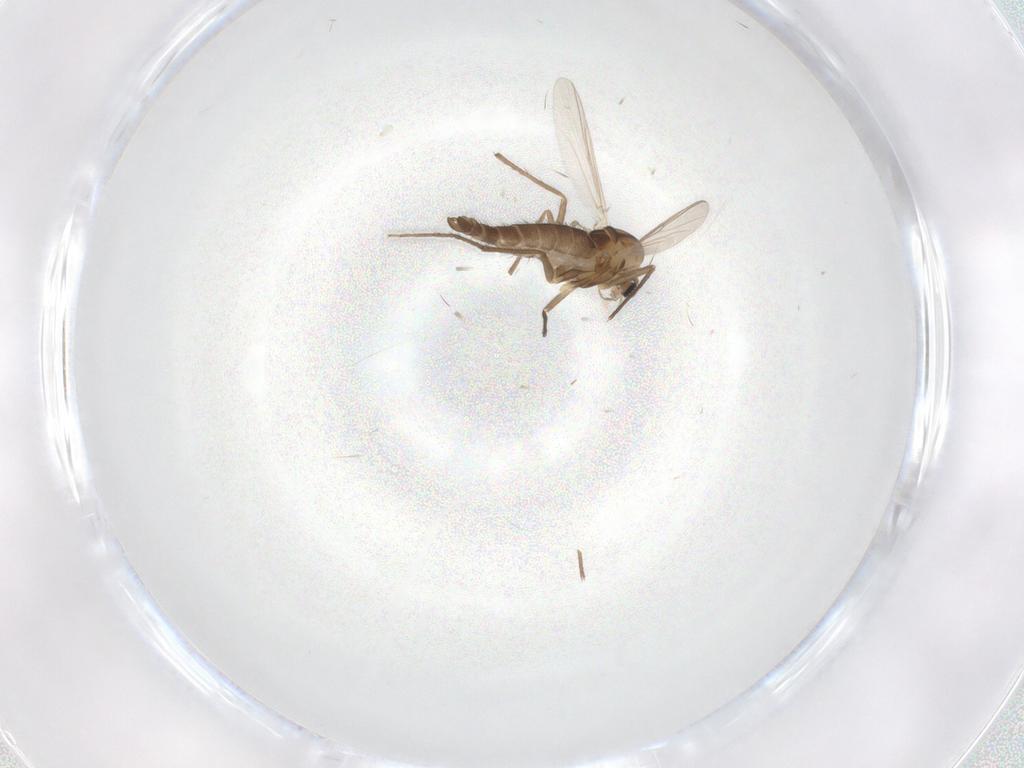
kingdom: Animalia
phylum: Arthropoda
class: Insecta
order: Diptera
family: Chironomidae
